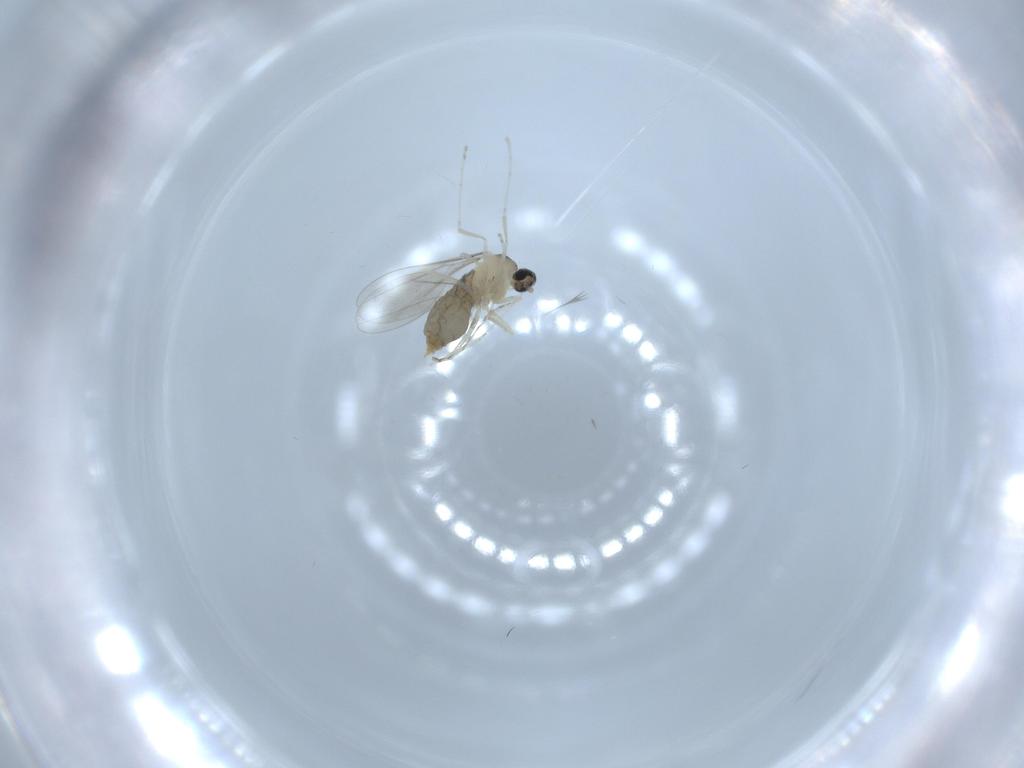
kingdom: Animalia
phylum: Arthropoda
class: Insecta
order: Diptera
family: Stratiomyidae
